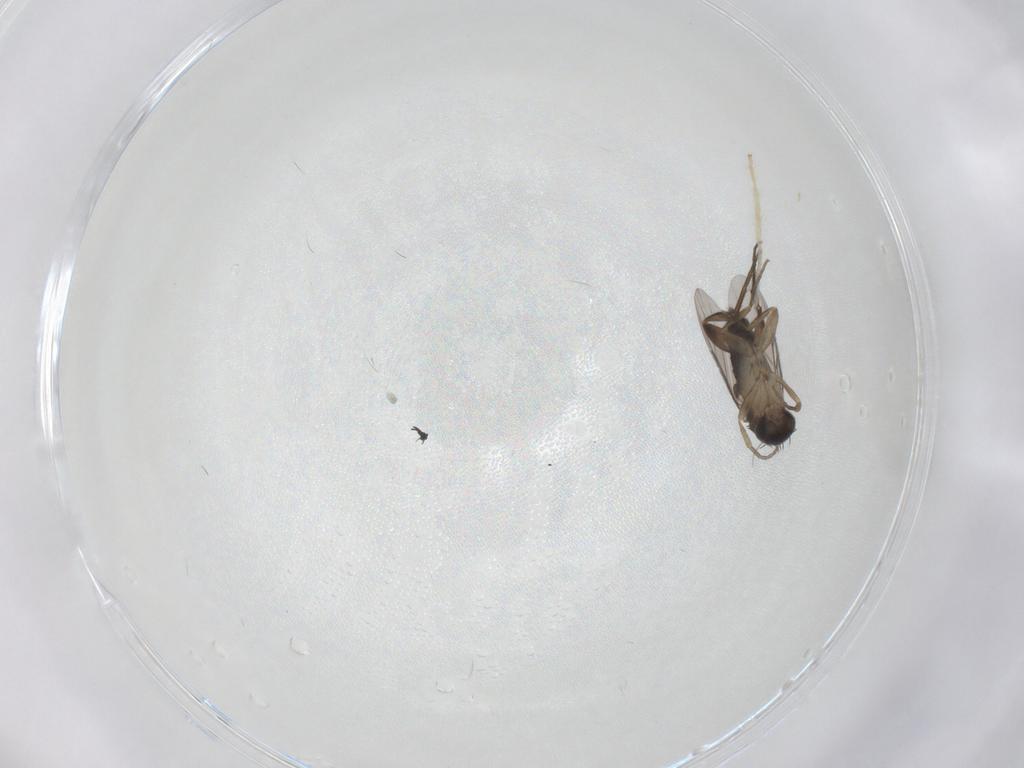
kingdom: Animalia
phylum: Arthropoda
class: Insecta
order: Diptera
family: Phoridae
